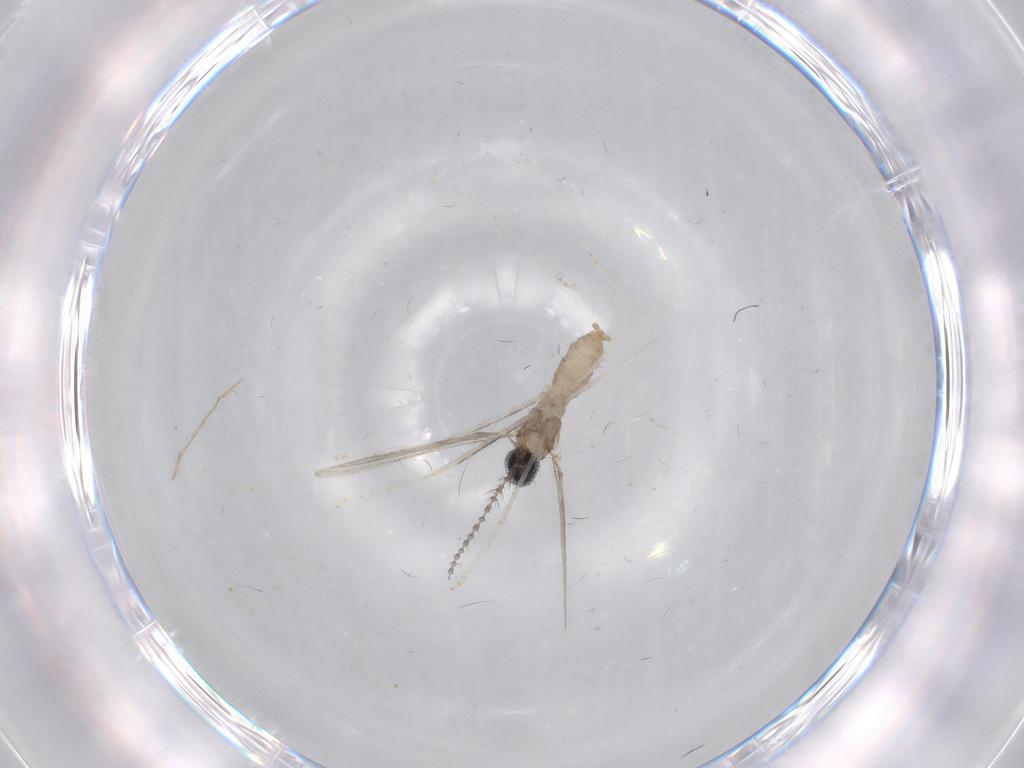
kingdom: Animalia
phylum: Arthropoda
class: Insecta
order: Diptera
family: Cecidomyiidae
